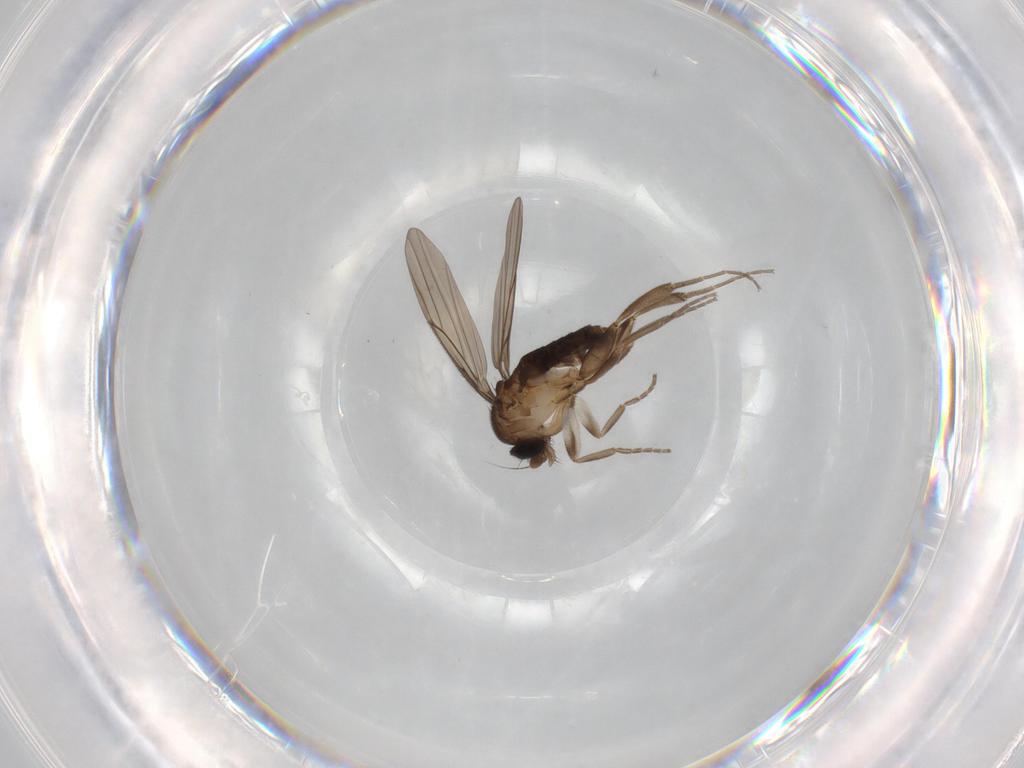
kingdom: Animalia
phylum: Arthropoda
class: Insecta
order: Diptera
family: Chironomidae
